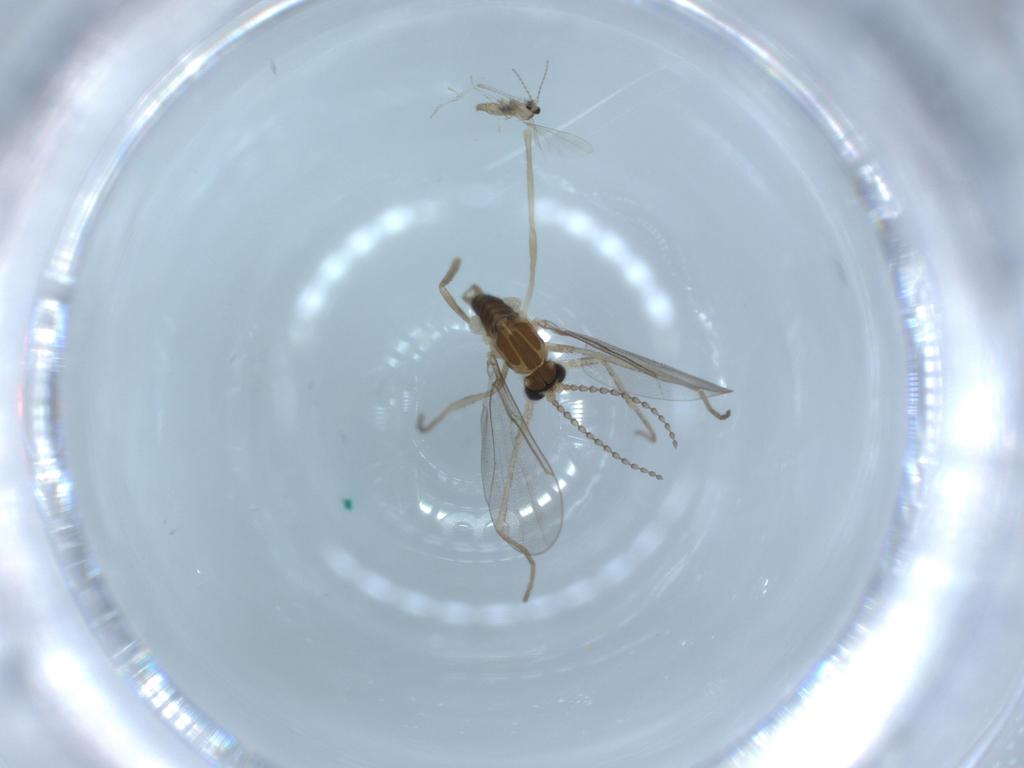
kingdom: Animalia
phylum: Arthropoda
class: Insecta
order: Diptera
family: Cecidomyiidae
